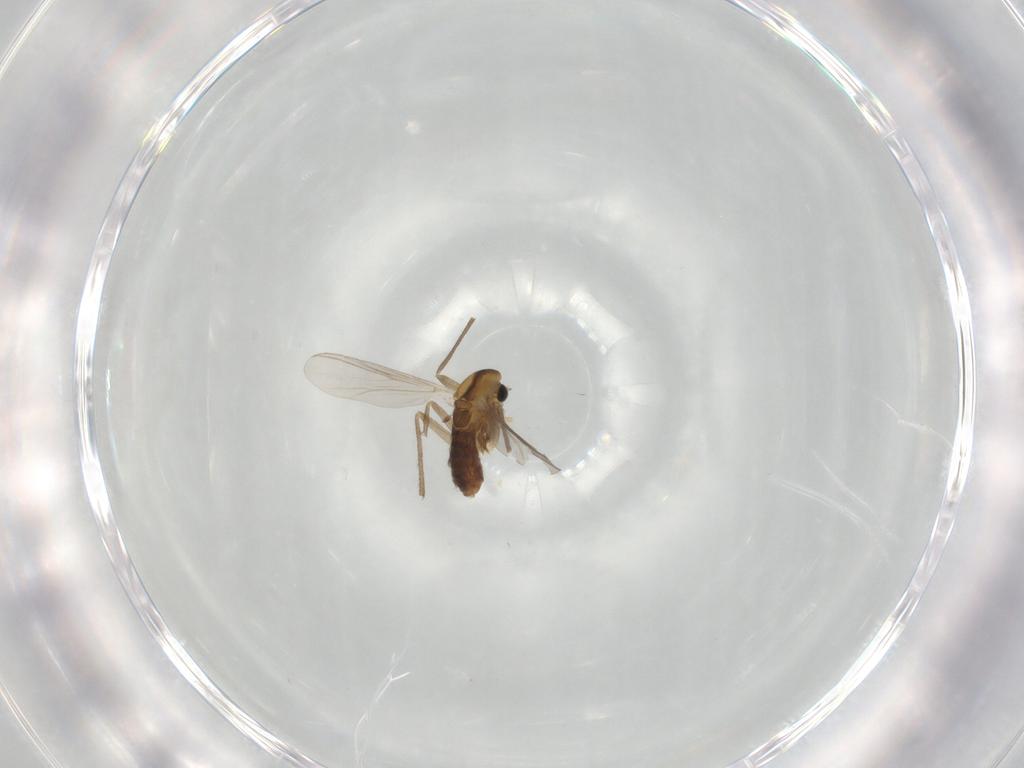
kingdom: Animalia
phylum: Arthropoda
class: Insecta
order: Diptera
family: Chironomidae
